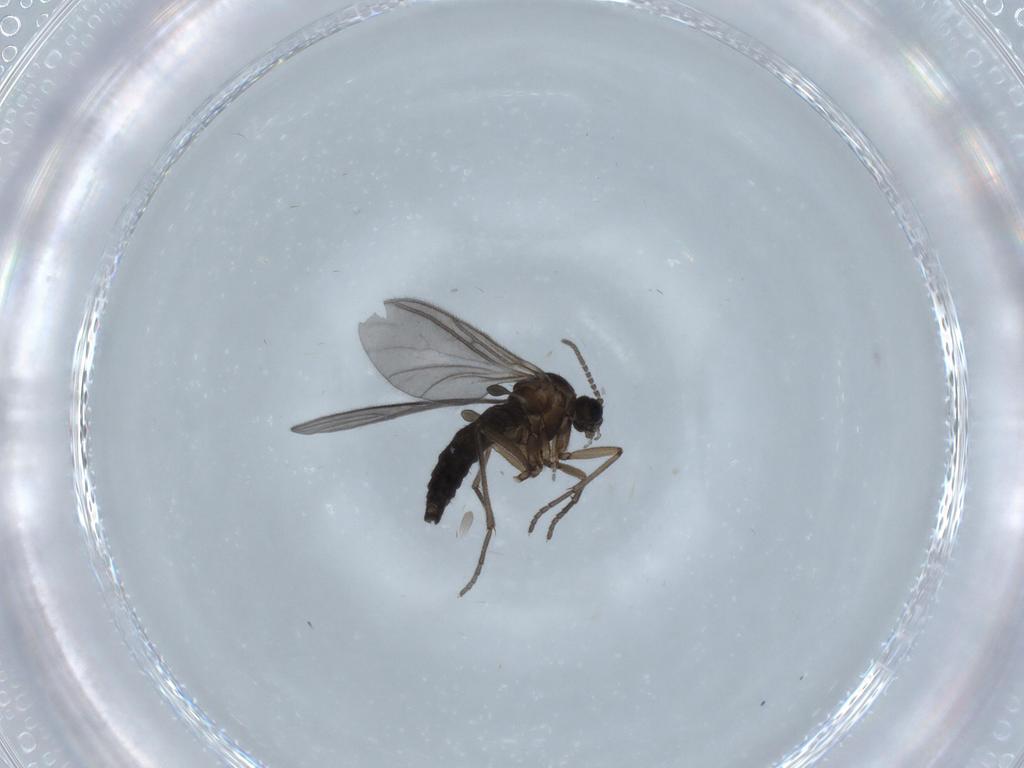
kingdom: Animalia
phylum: Arthropoda
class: Insecta
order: Diptera
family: Sciaridae
